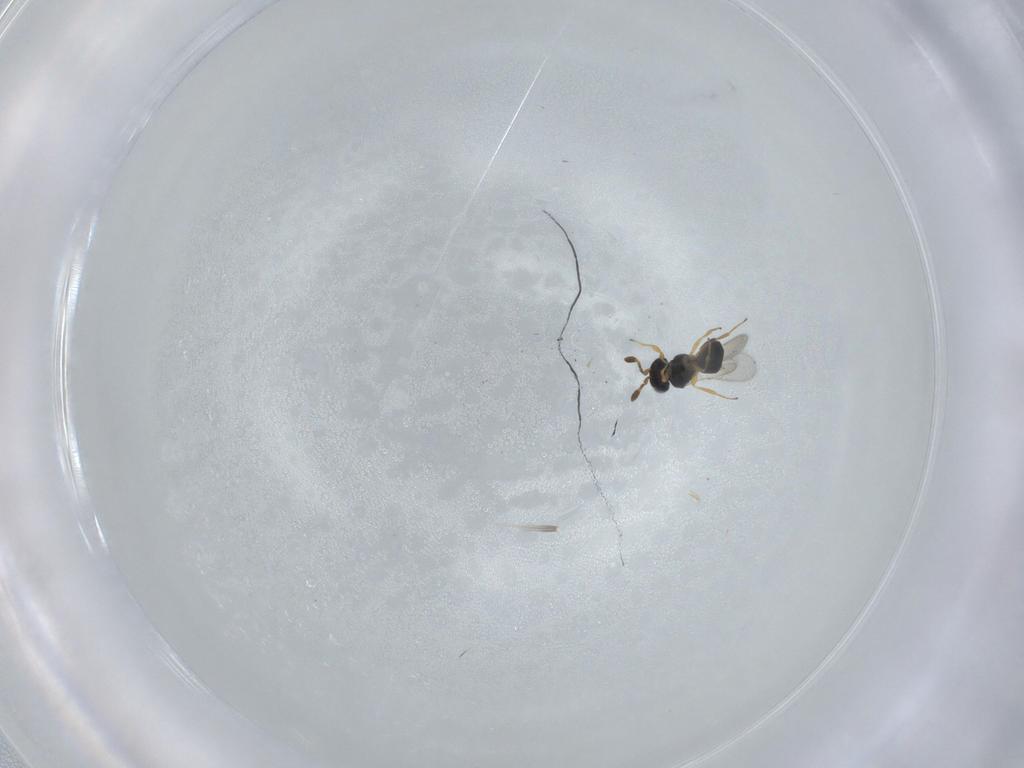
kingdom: Animalia
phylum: Arthropoda
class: Insecta
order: Hymenoptera
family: Scelionidae
